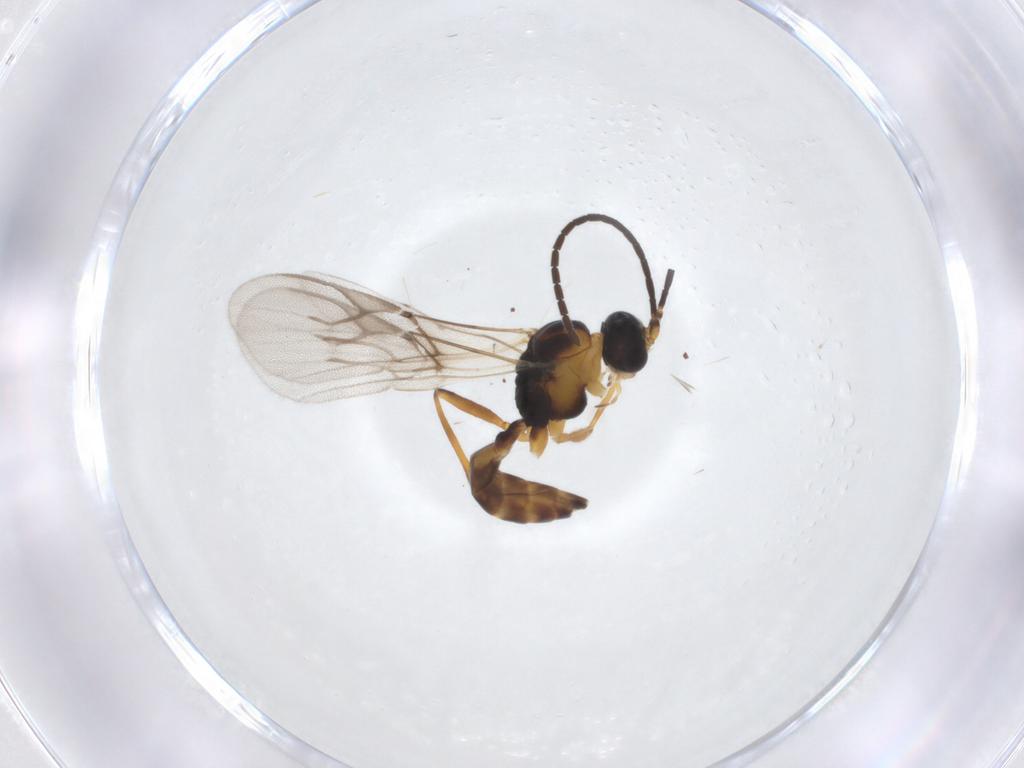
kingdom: Animalia
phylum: Arthropoda
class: Insecta
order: Hymenoptera
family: Braconidae
